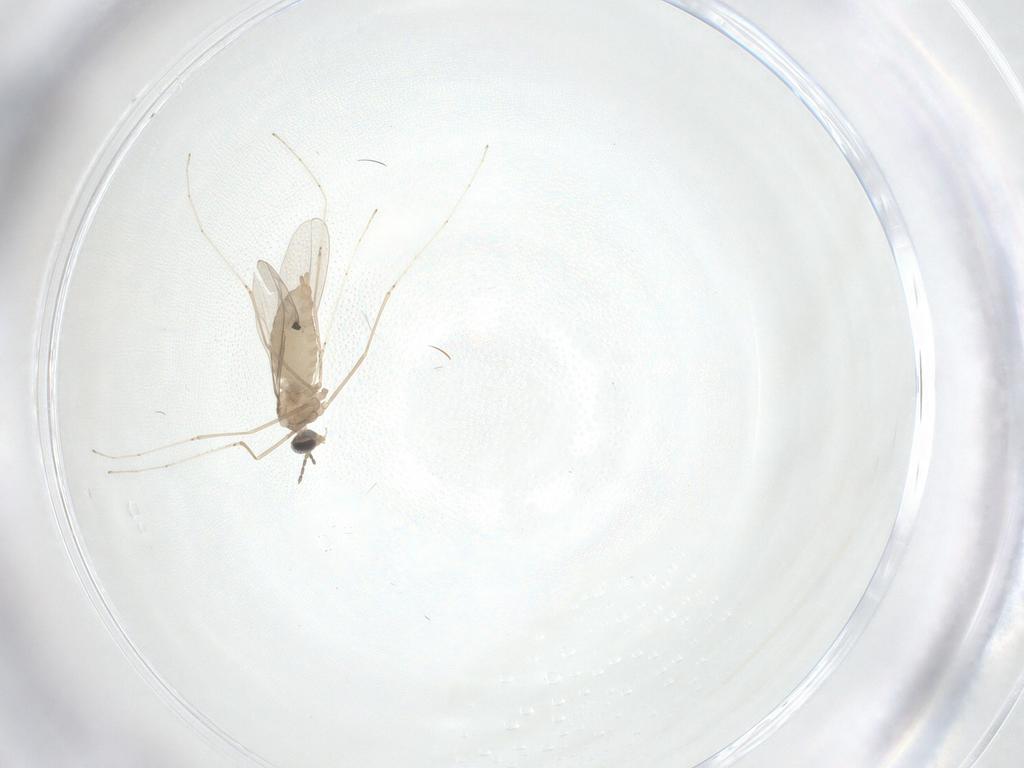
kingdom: Animalia
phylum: Arthropoda
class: Insecta
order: Diptera
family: Cecidomyiidae
